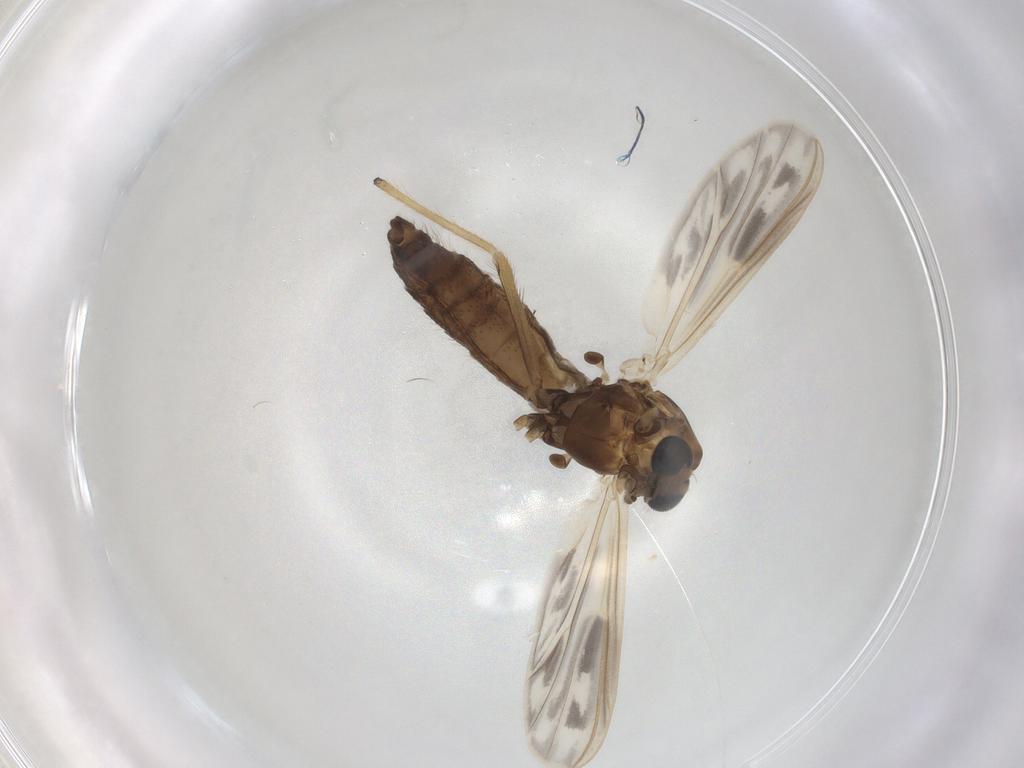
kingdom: Animalia
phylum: Arthropoda
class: Insecta
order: Diptera
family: Chironomidae
